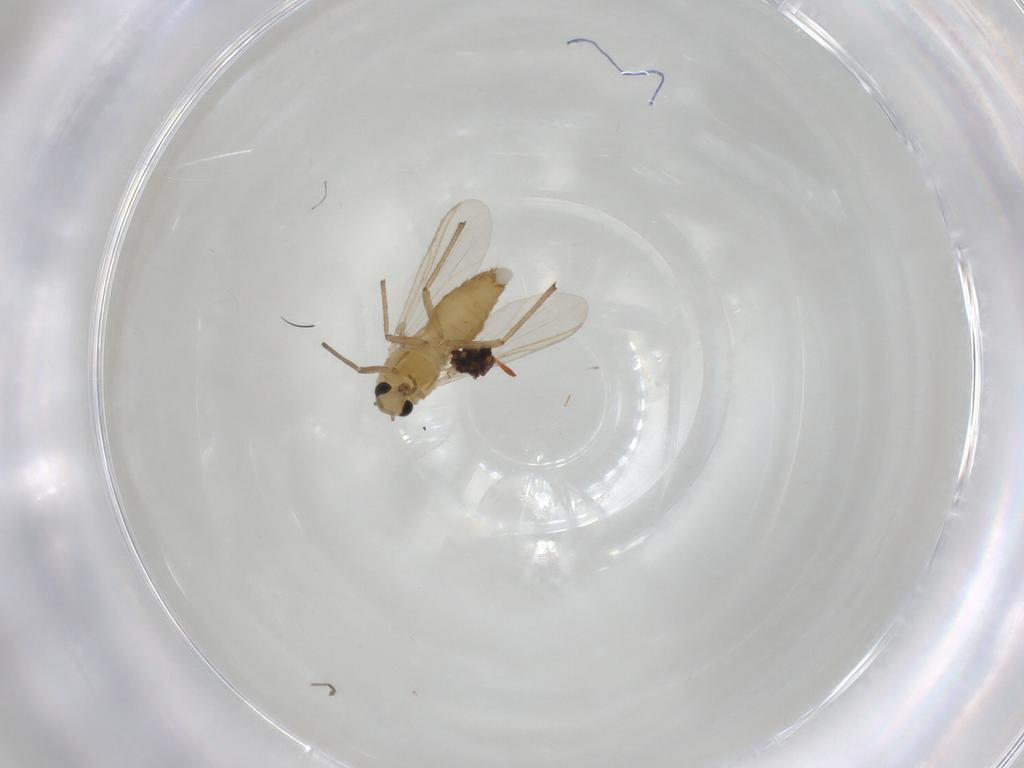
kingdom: Animalia
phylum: Arthropoda
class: Insecta
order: Diptera
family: Chironomidae
